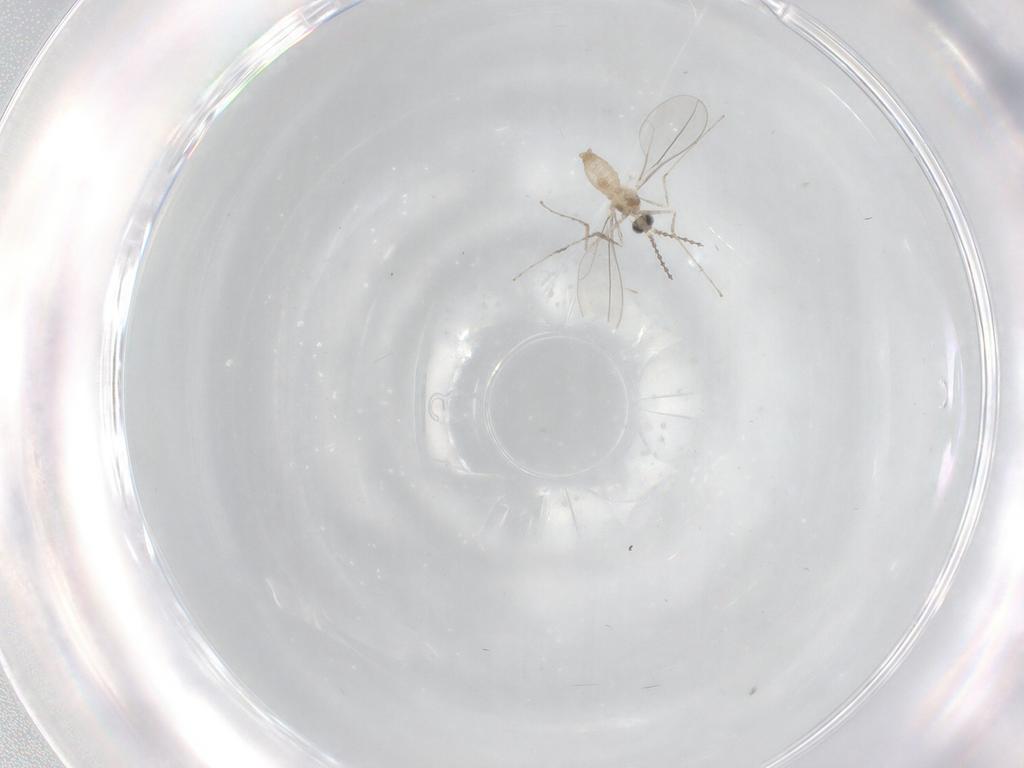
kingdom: Animalia
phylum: Arthropoda
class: Insecta
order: Diptera
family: Cecidomyiidae
